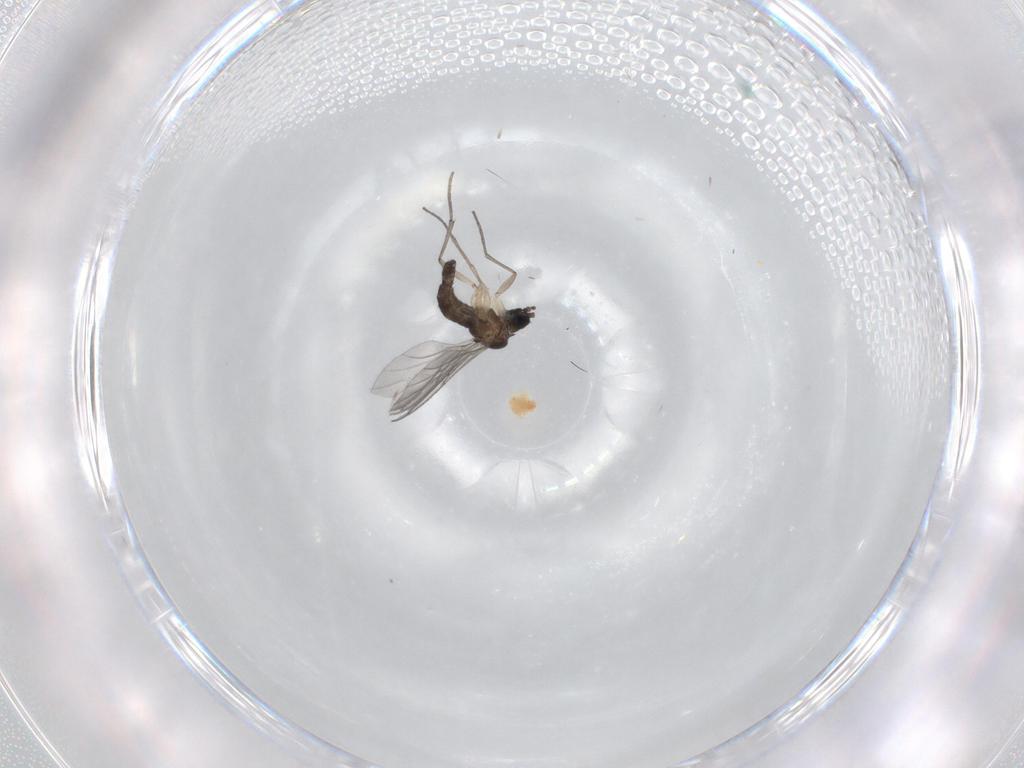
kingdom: Animalia
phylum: Arthropoda
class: Insecta
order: Diptera
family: Sciaridae
